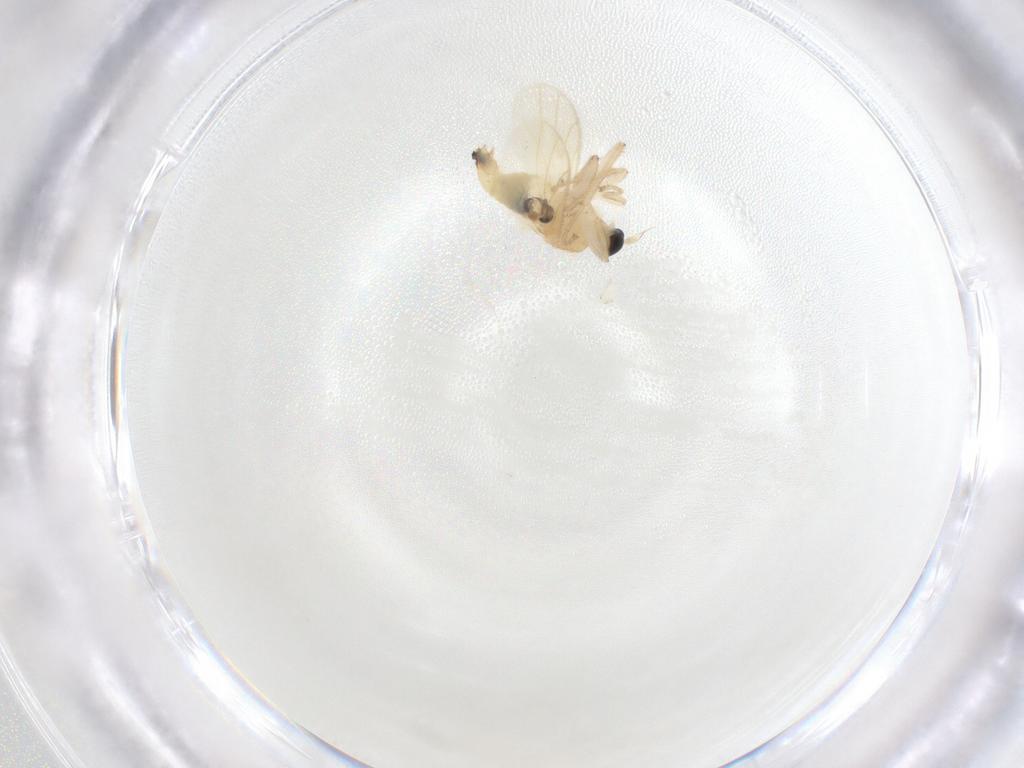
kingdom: Animalia
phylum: Arthropoda
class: Insecta
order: Diptera
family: Hybotidae
